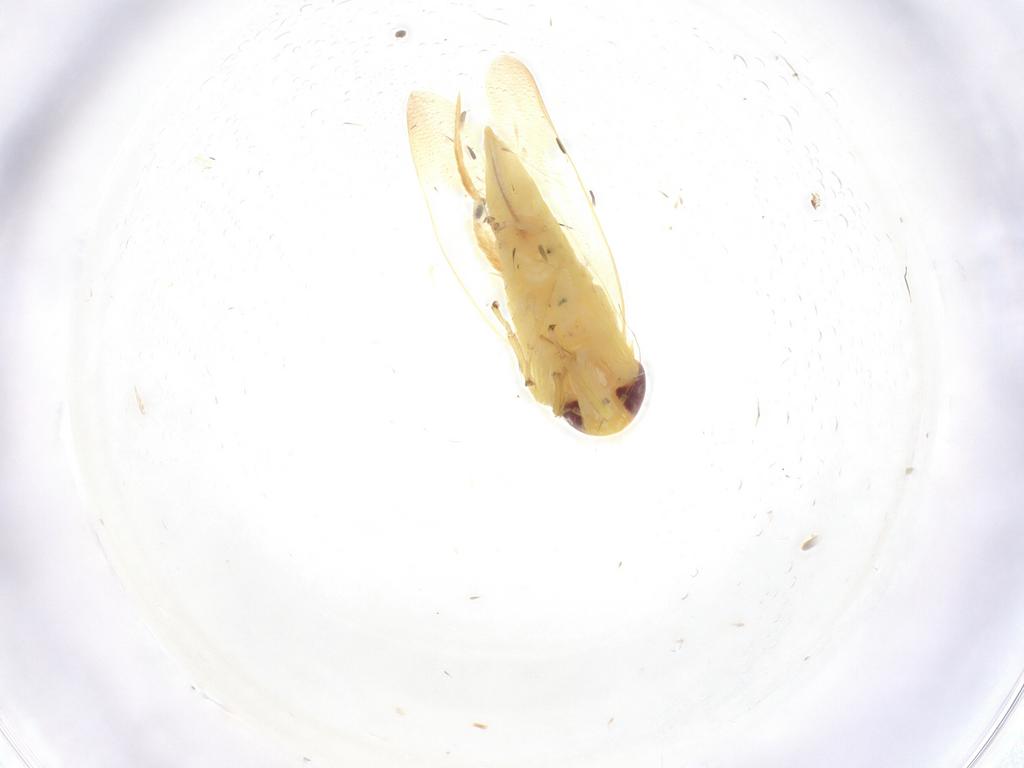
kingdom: Animalia
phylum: Arthropoda
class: Insecta
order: Hemiptera
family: Cicadellidae
